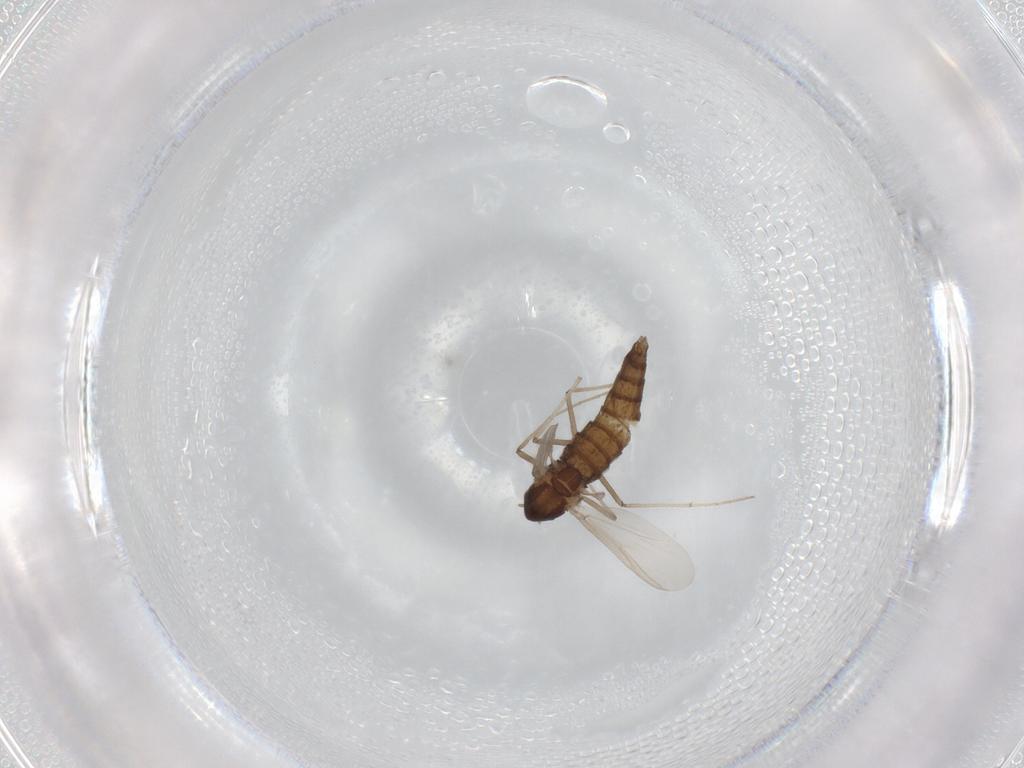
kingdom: Animalia
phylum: Arthropoda
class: Insecta
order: Diptera
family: Chironomidae
